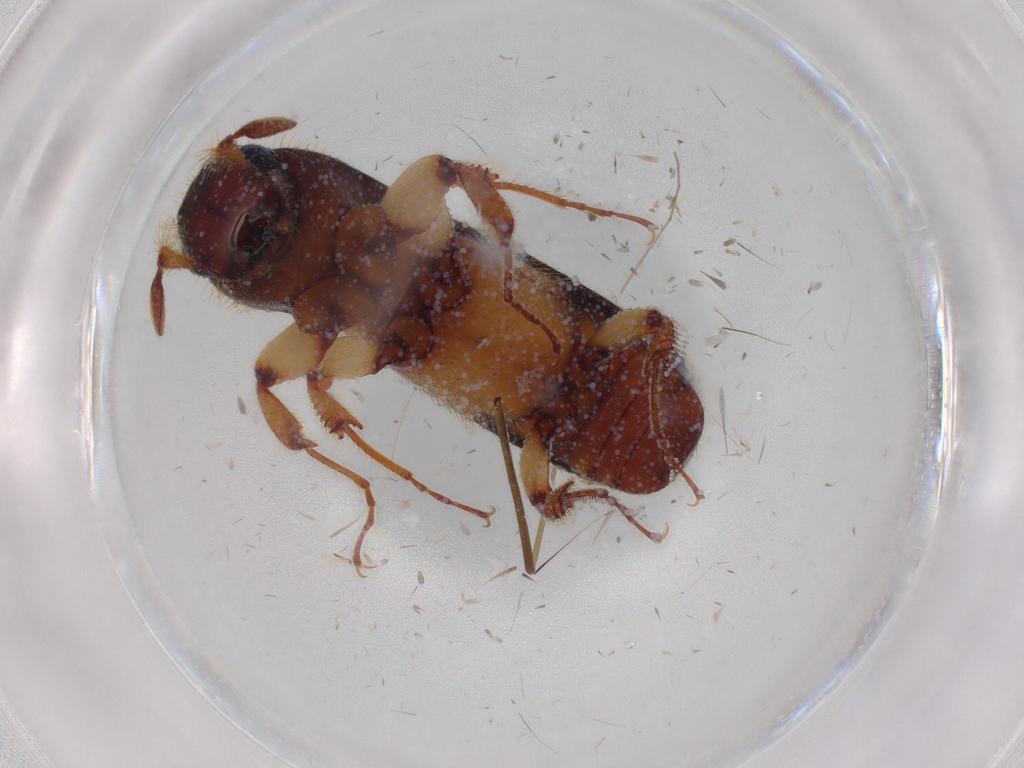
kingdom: Animalia
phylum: Arthropoda
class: Insecta
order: Coleoptera
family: Curculionidae
